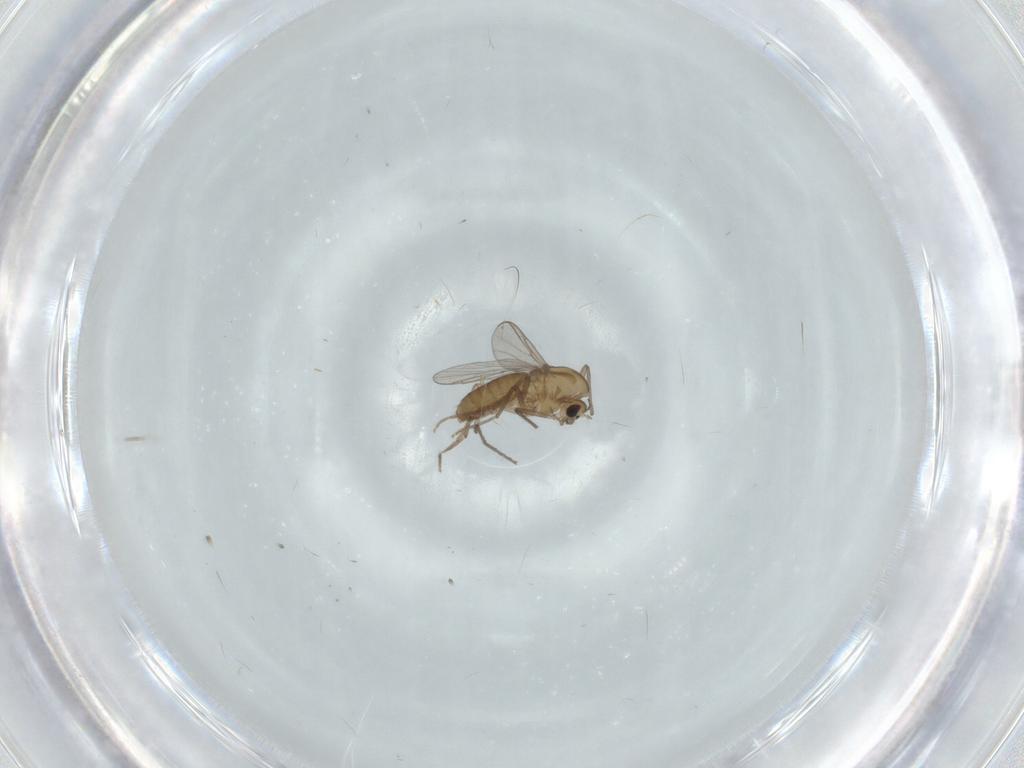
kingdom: Animalia
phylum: Arthropoda
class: Insecta
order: Diptera
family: Chironomidae
